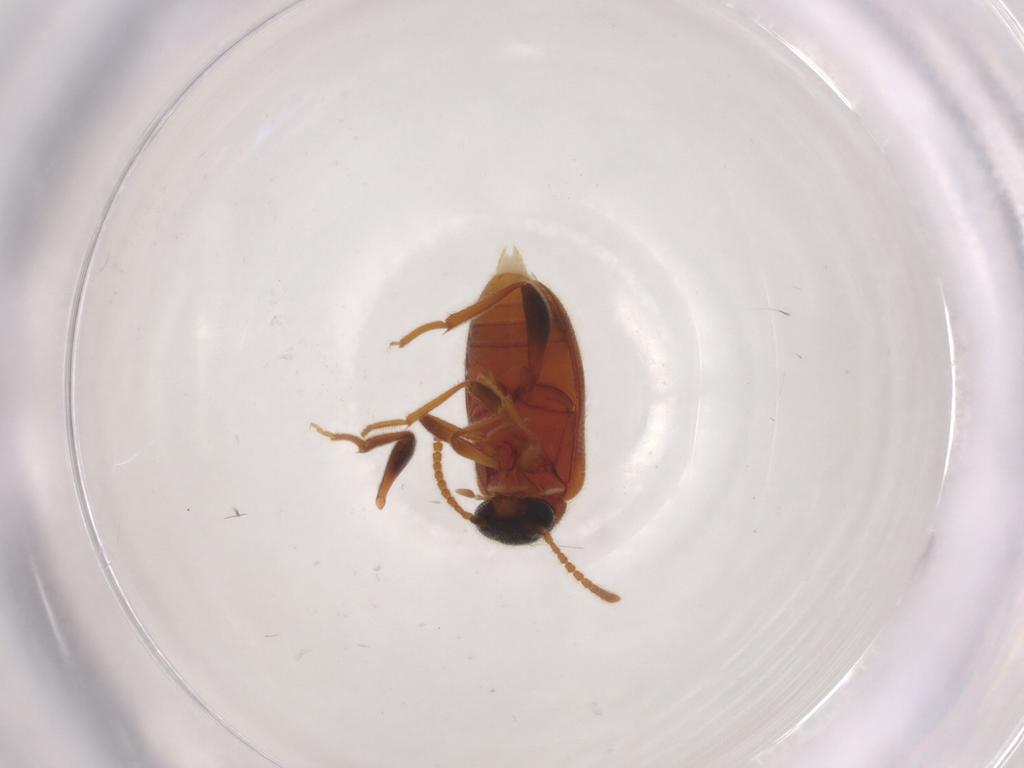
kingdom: Animalia
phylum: Arthropoda
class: Insecta
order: Coleoptera
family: Aderidae
